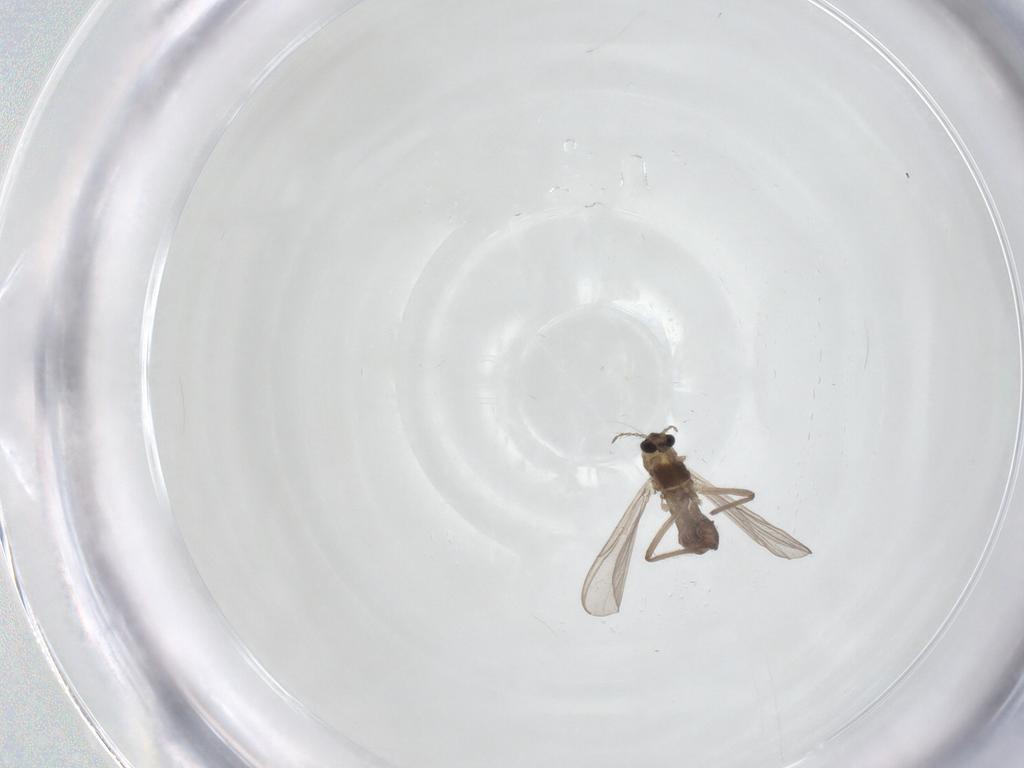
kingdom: Animalia
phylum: Arthropoda
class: Insecta
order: Diptera
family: Chironomidae
